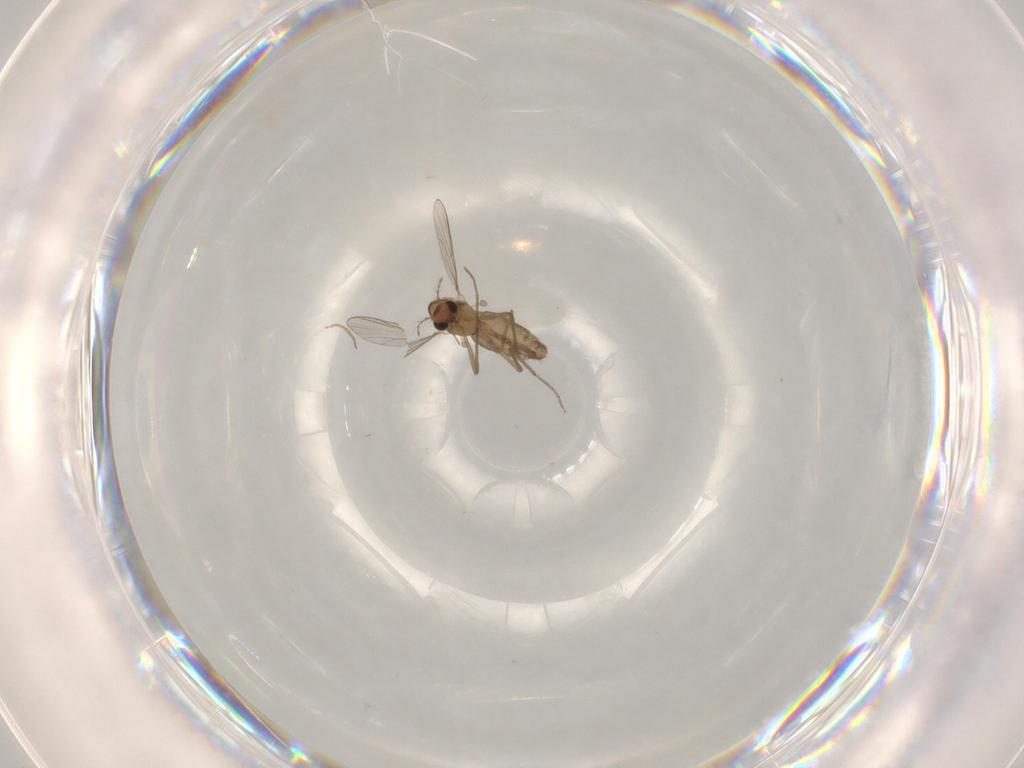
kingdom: Animalia
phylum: Arthropoda
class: Insecta
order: Diptera
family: Chironomidae
